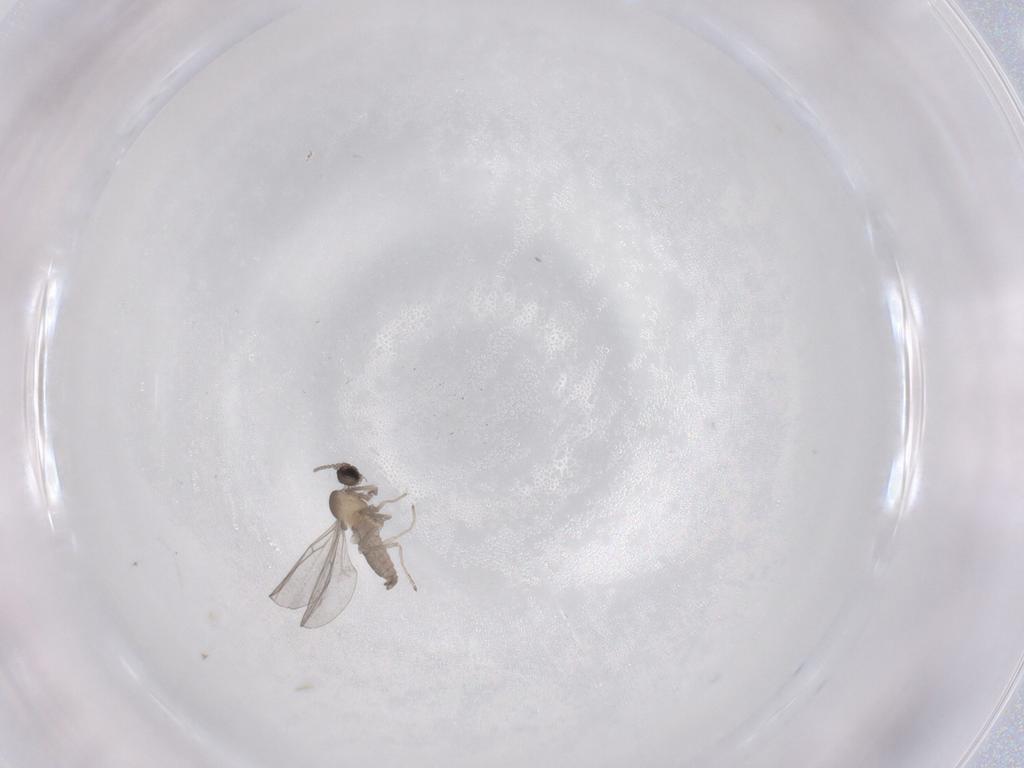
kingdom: Animalia
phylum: Arthropoda
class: Insecta
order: Diptera
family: Cecidomyiidae
